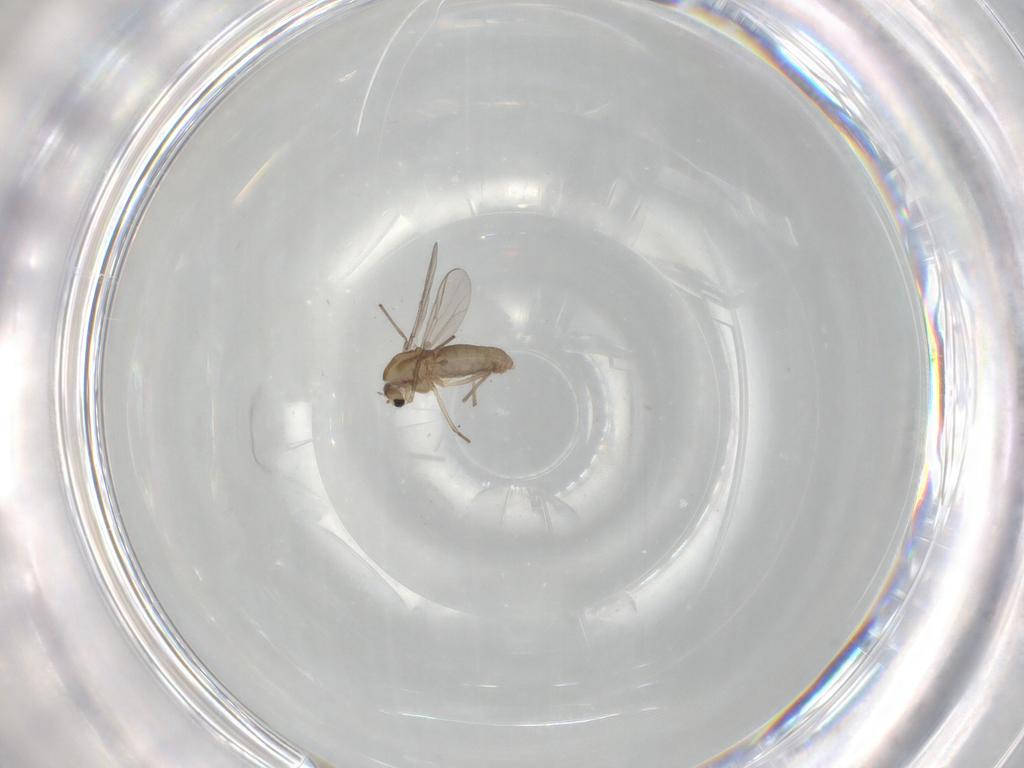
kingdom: Animalia
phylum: Arthropoda
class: Insecta
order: Diptera
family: Chironomidae
